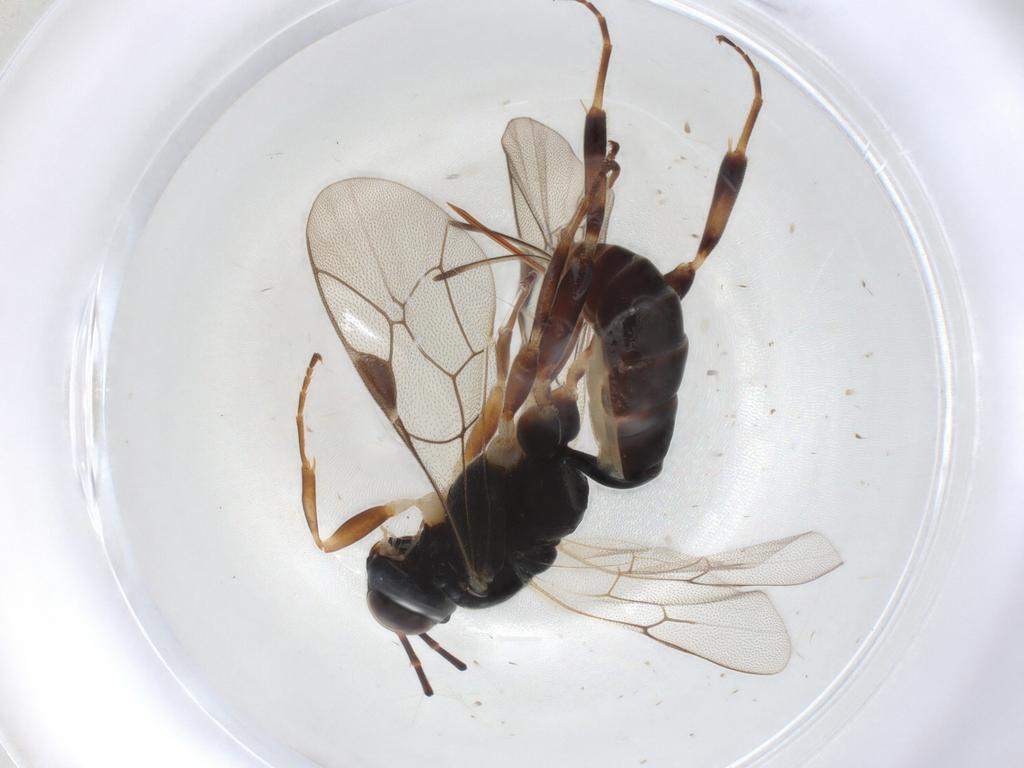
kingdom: Animalia
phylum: Arthropoda
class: Insecta
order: Hymenoptera
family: Ichneumonidae
